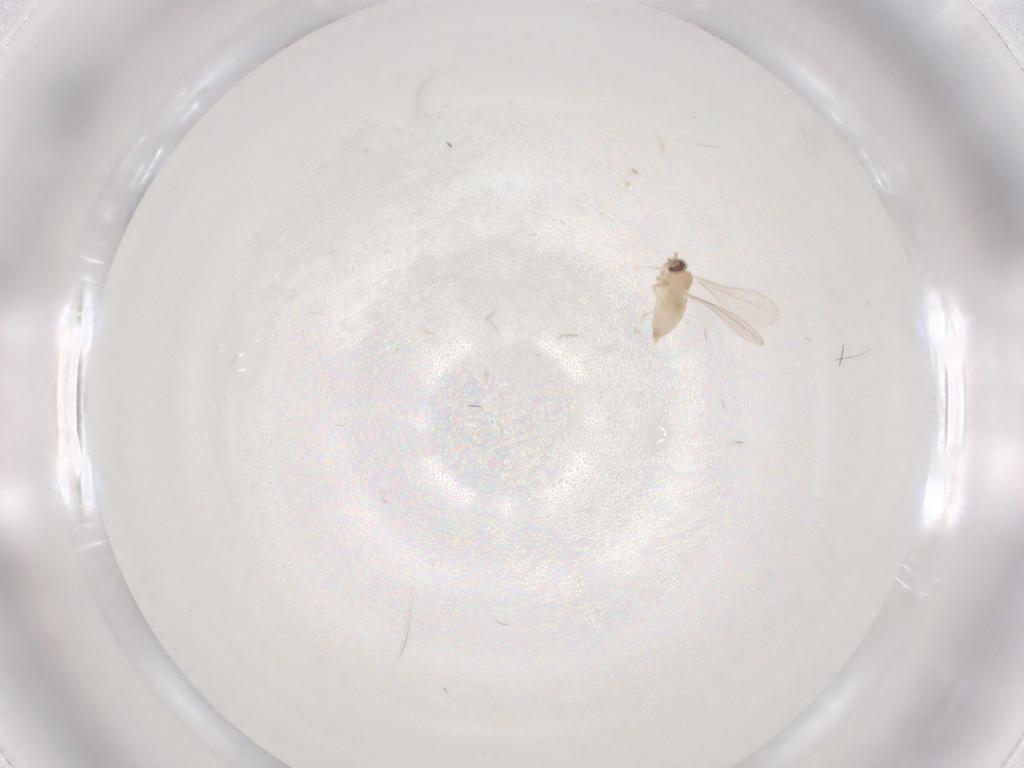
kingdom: Animalia
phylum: Arthropoda
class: Insecta
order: Diptera
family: Cecidomyiidae
